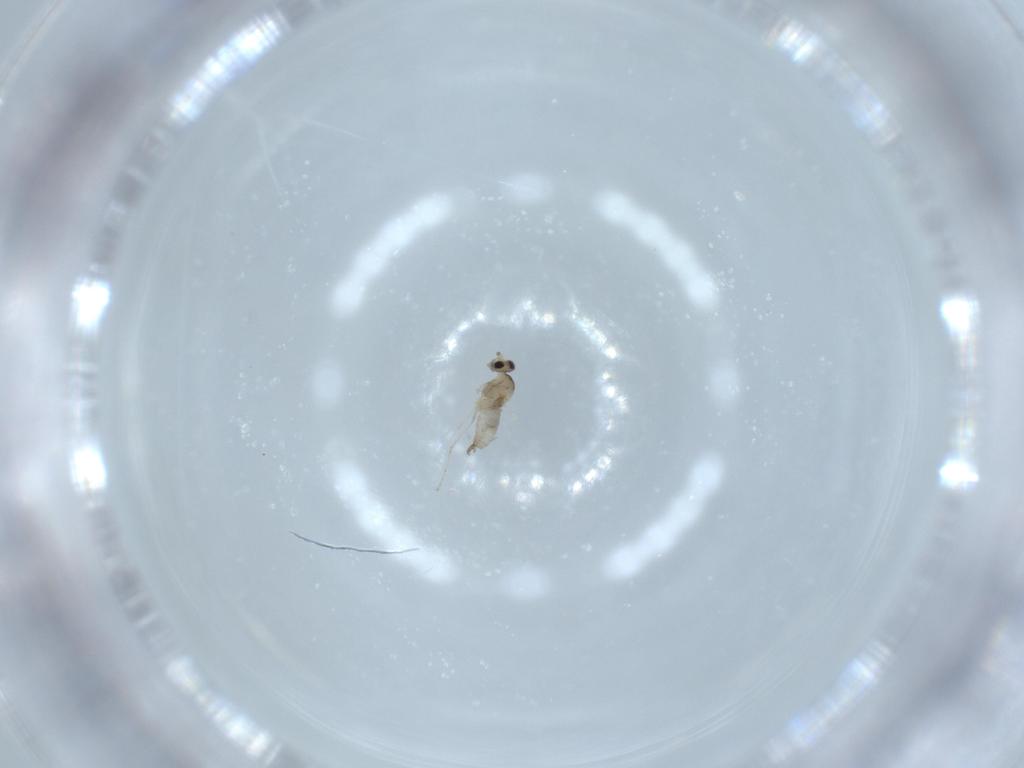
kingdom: Animalia
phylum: Arthropoda
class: Insecta
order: Diptera
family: Cecidomyiidae
